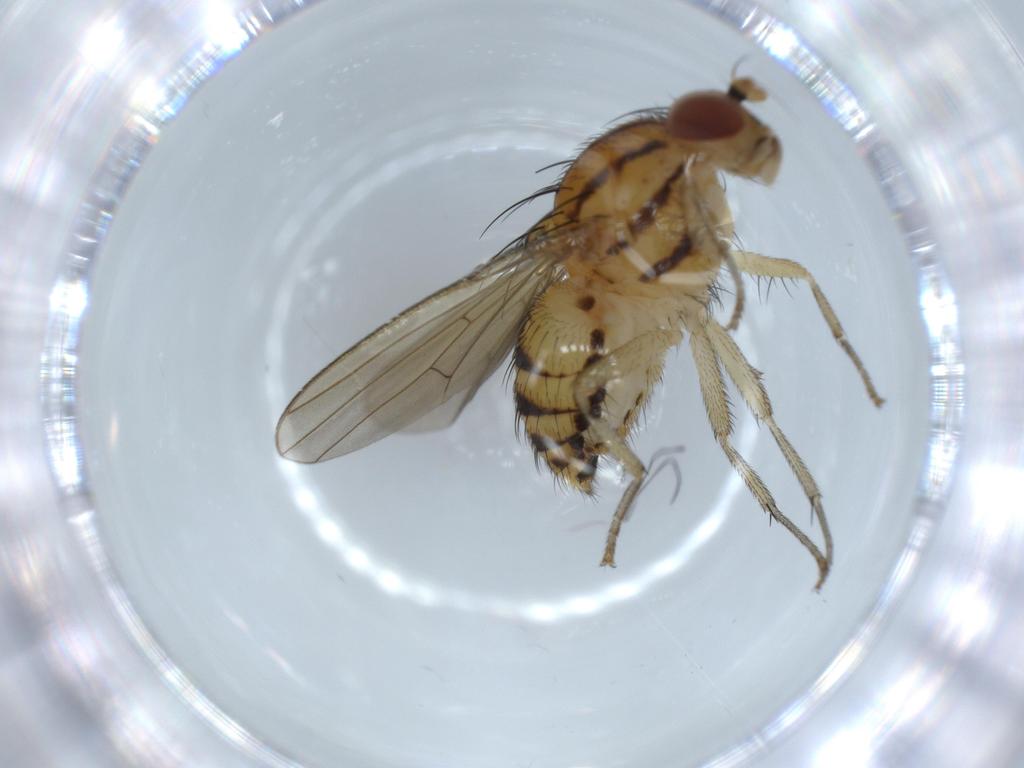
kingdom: Animalia
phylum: Arthropoda
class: Insecta
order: Diptera
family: Lauxaniidae
